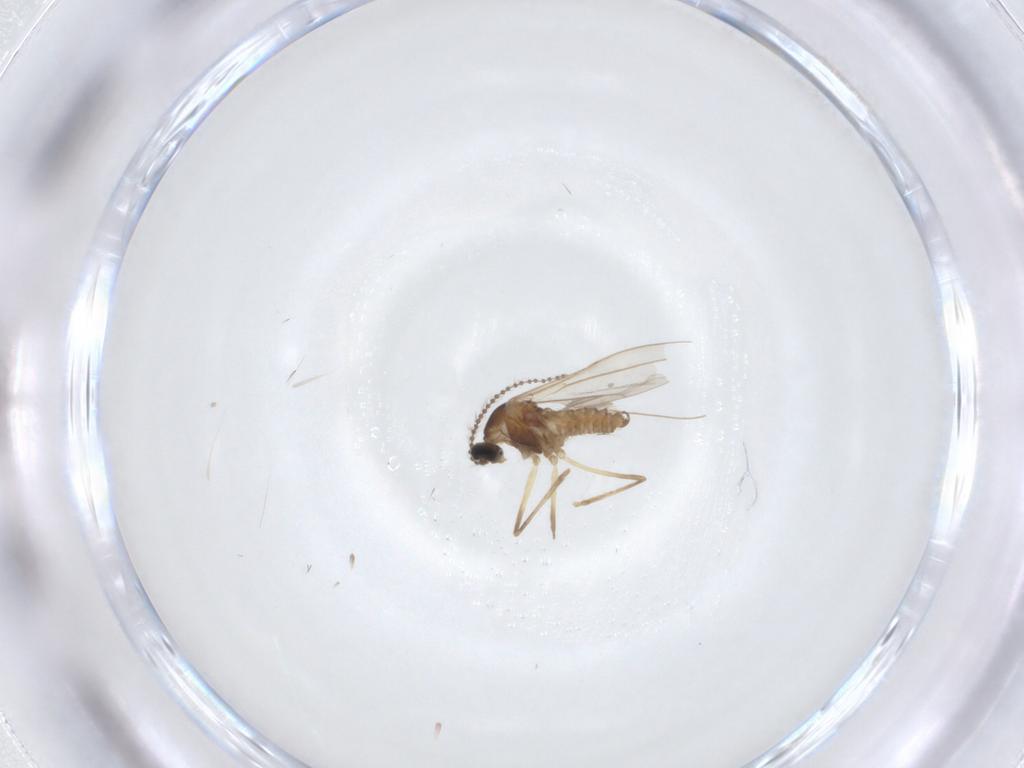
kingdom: Animalia
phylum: Arthropoda
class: Insecta
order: Diptera
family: Cecidomyiidae
